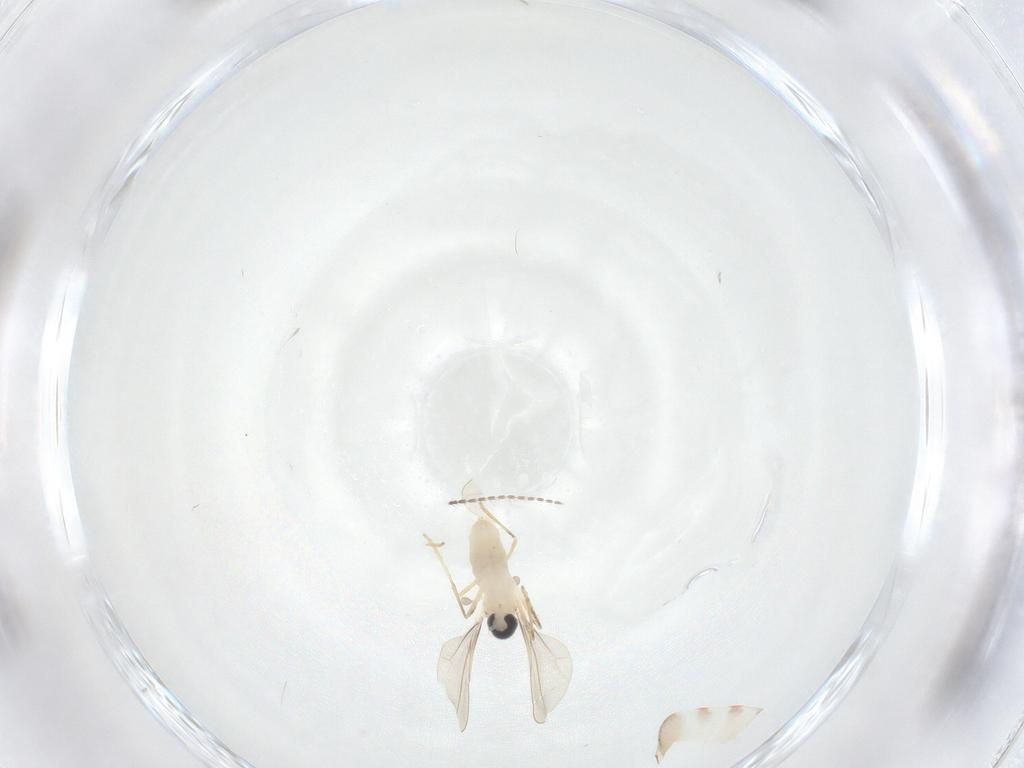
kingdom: Animalia
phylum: Arthropoda
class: Insecta
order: Diptera
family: Cecidomyiidae
